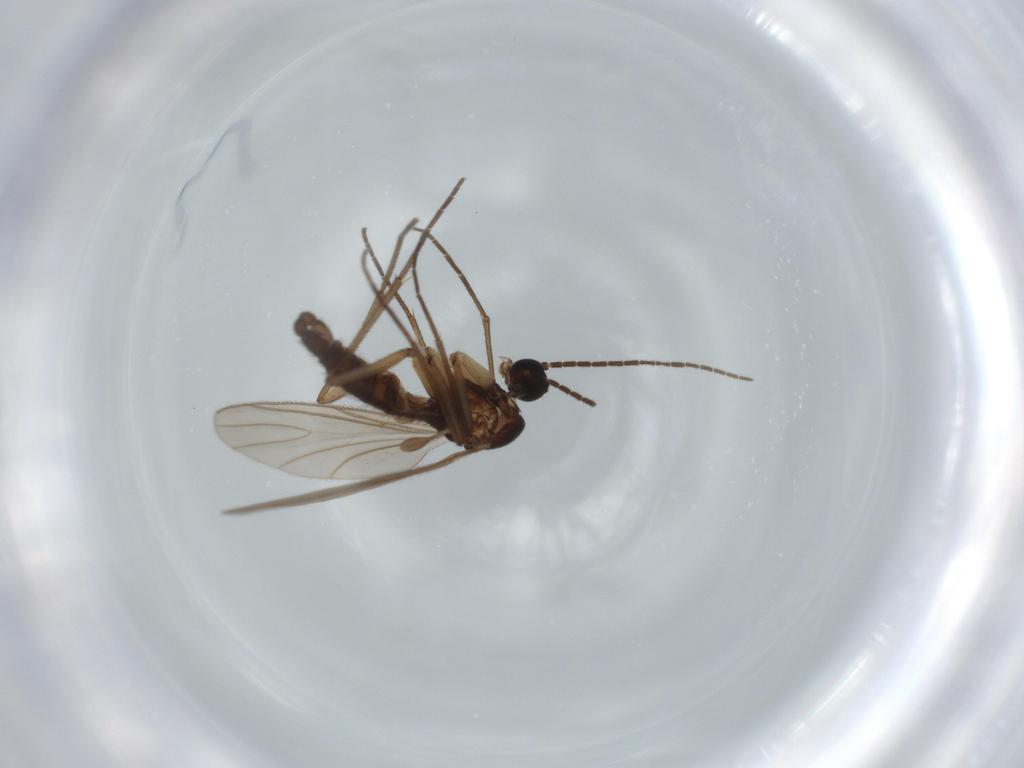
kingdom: Animalia
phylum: Arthropoda
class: Insecta
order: Diptera
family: Sciaridae
